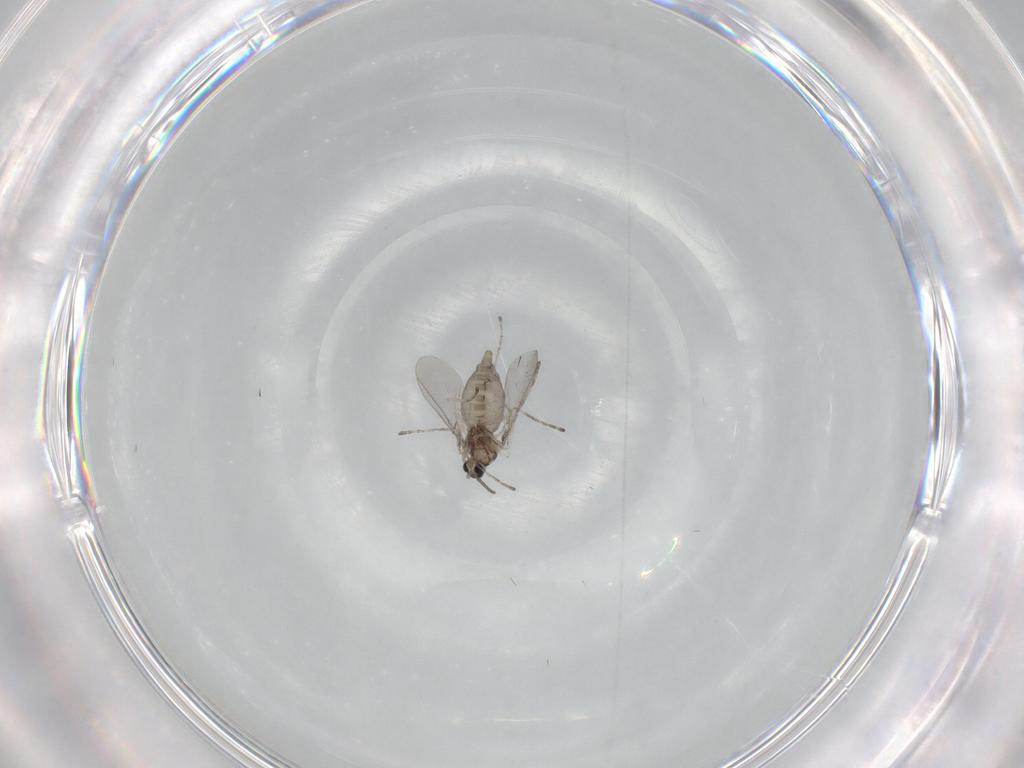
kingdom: Animalia
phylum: Arthropoda
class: Insecta
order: Diptera
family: Cecidomyiidae
